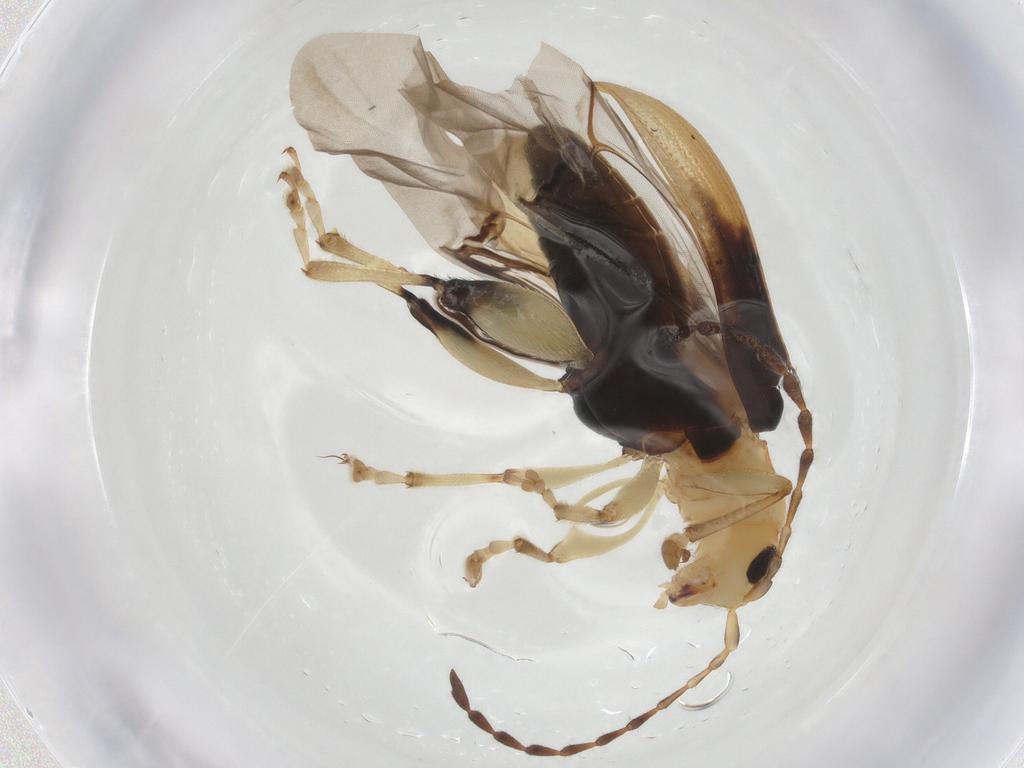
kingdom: Animalia
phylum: Arthropoda
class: Insecta
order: Coleoptera
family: Chrysomelidae
